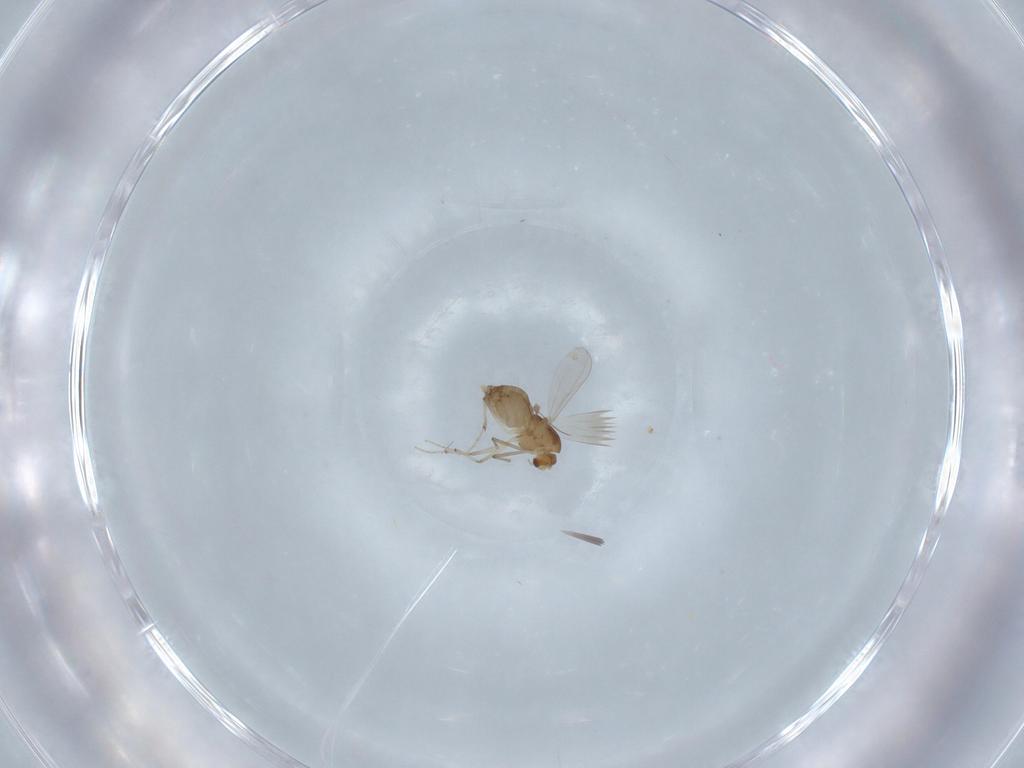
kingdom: Animalia
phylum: Arthropoda
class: Insecta
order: Diptera
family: Chironomidae
